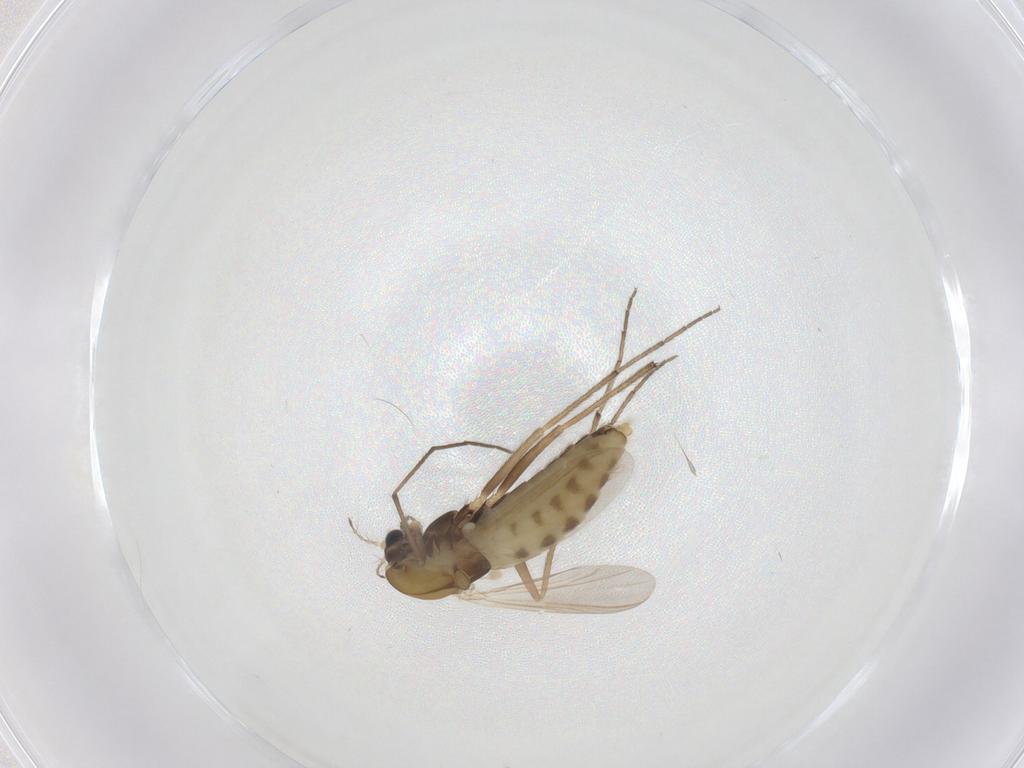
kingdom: Animalia
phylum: Arthropoda
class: Insecta
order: Diptera
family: Chironomidae
